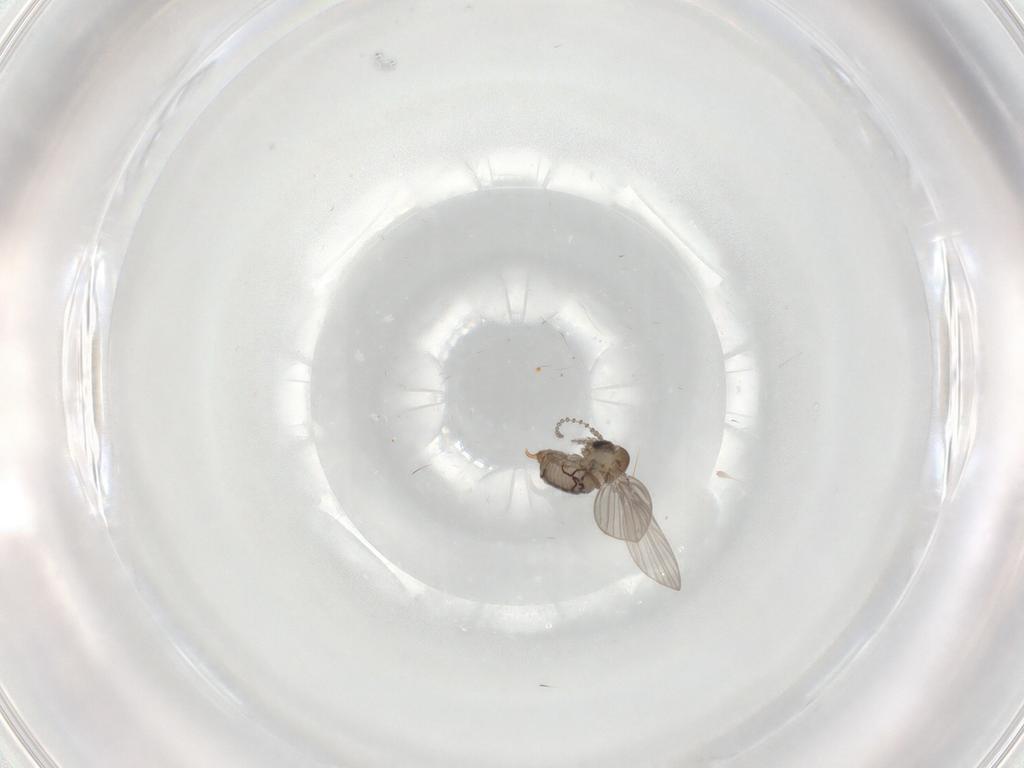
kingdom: Animalia
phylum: Arthropoda
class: Insecta
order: Diptera
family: Psychodidae
